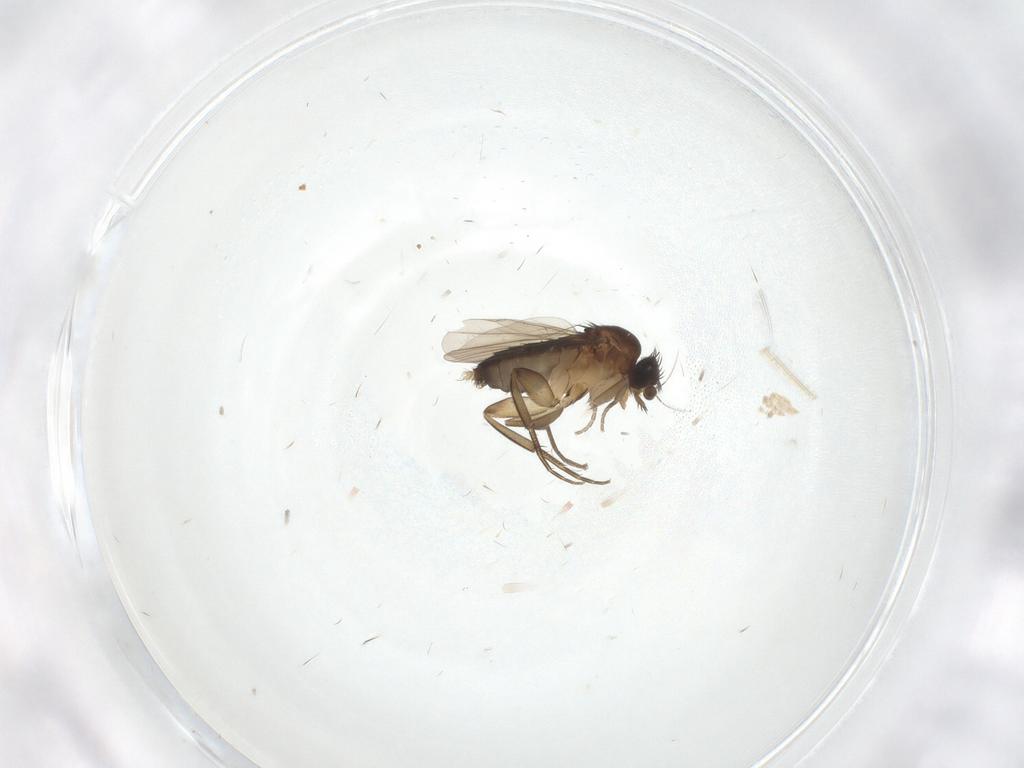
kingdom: Animalia
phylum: Arthropoda
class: Insecta
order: Diptera
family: Phoridae
